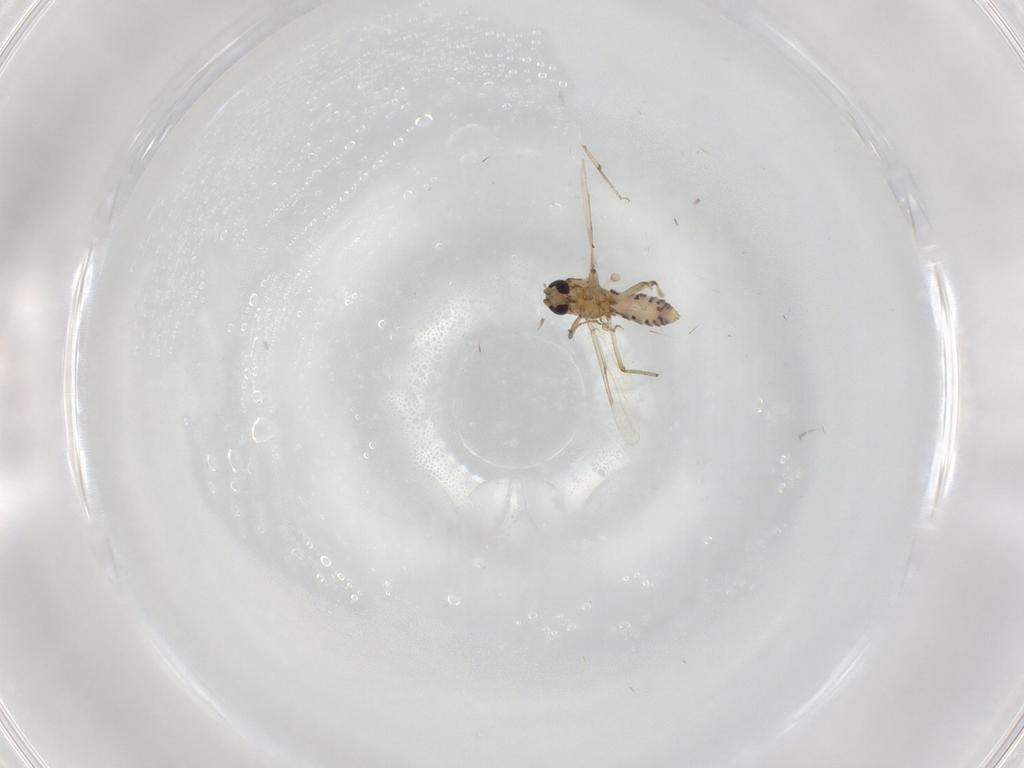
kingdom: Animalia
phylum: Arthropoda
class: Insecta
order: Diptera
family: Ceratopogonidae
